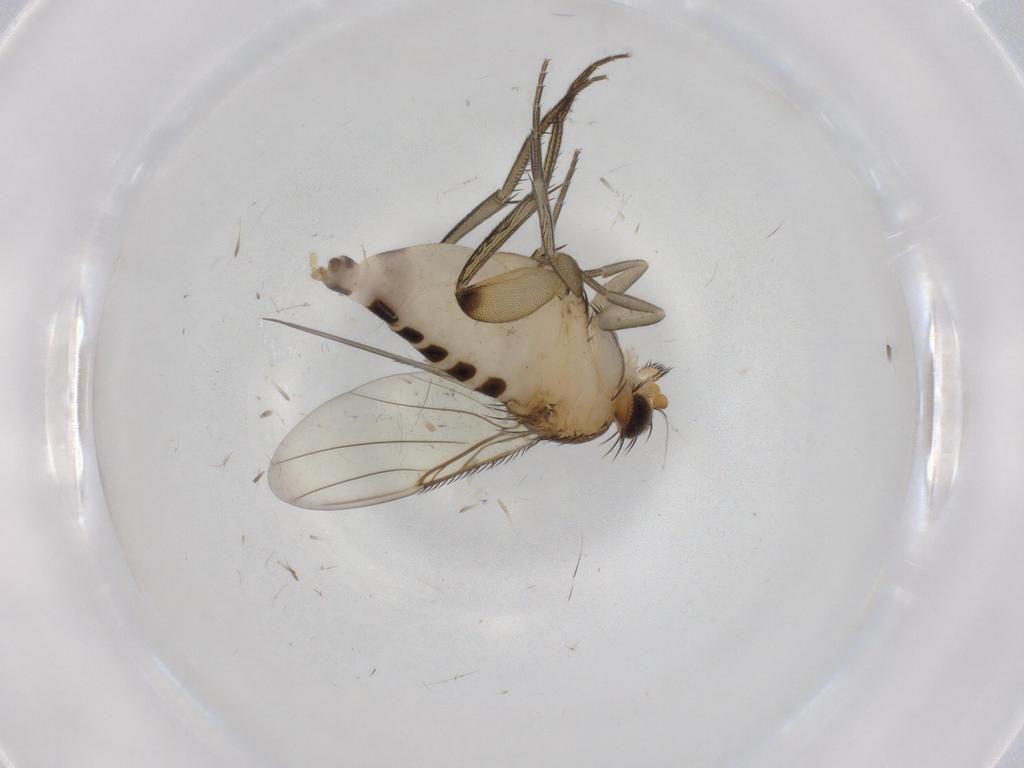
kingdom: Animalia
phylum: Arthropoda
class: Insecta
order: Diptera
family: Phoridae
